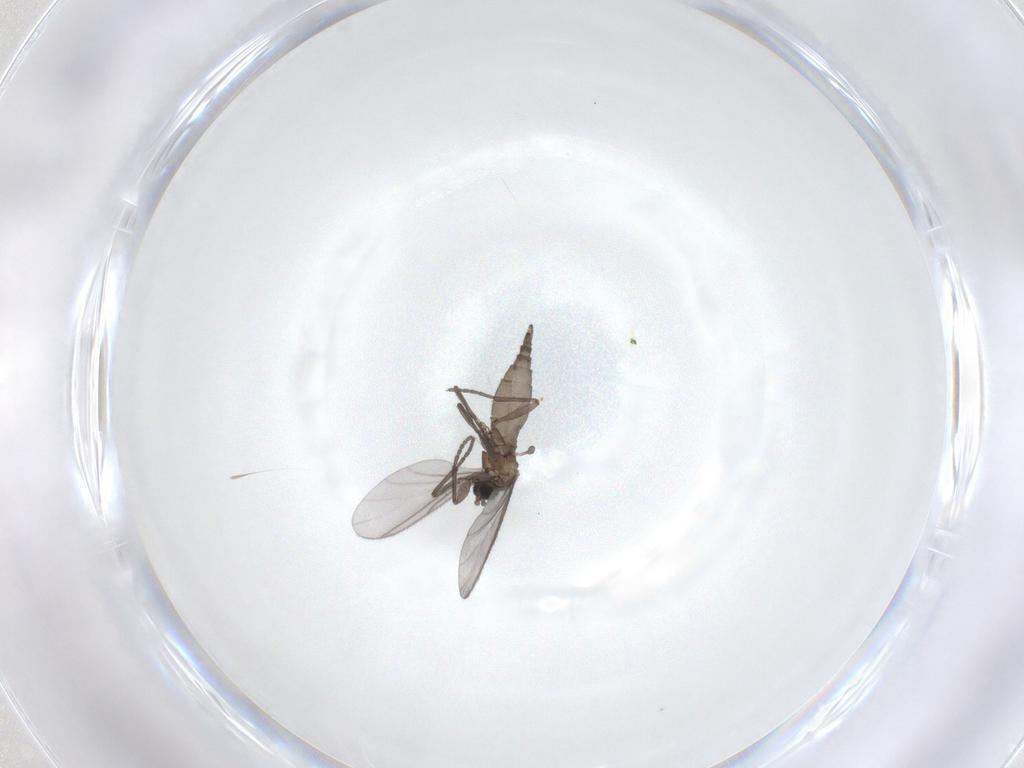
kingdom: Animalia
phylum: Arthropoda
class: Insecta
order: Diptera
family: Sciaridae
